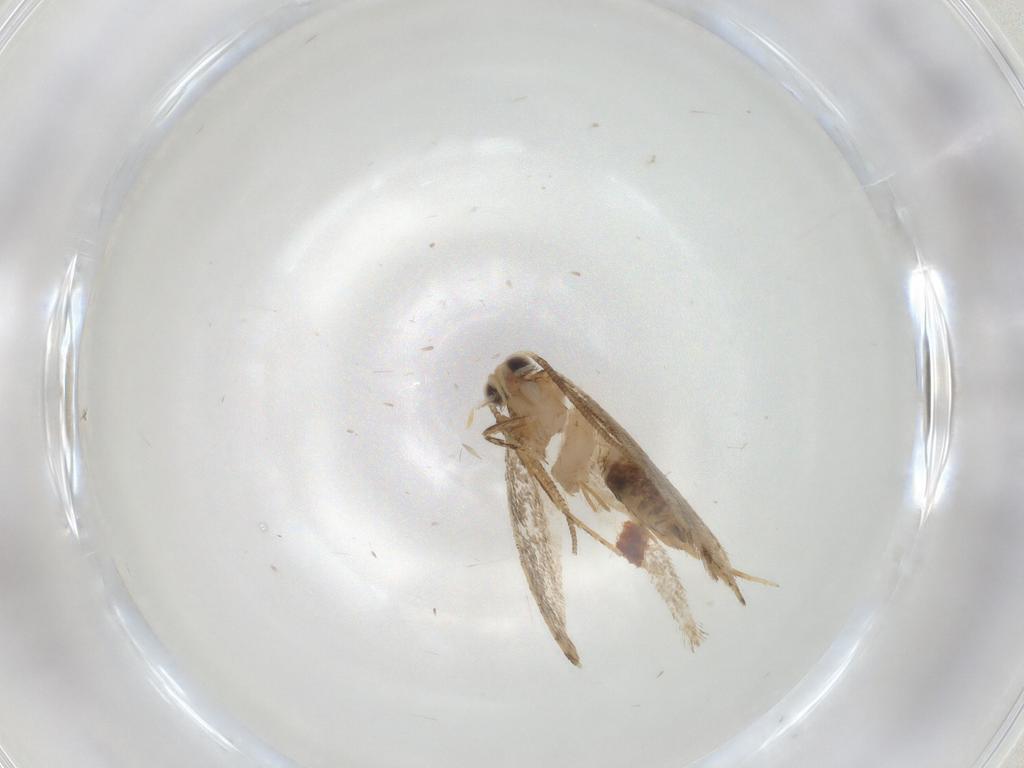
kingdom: Animalia
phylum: Arthropoda
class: Insecta
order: Lepidoptera
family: Tineidae
